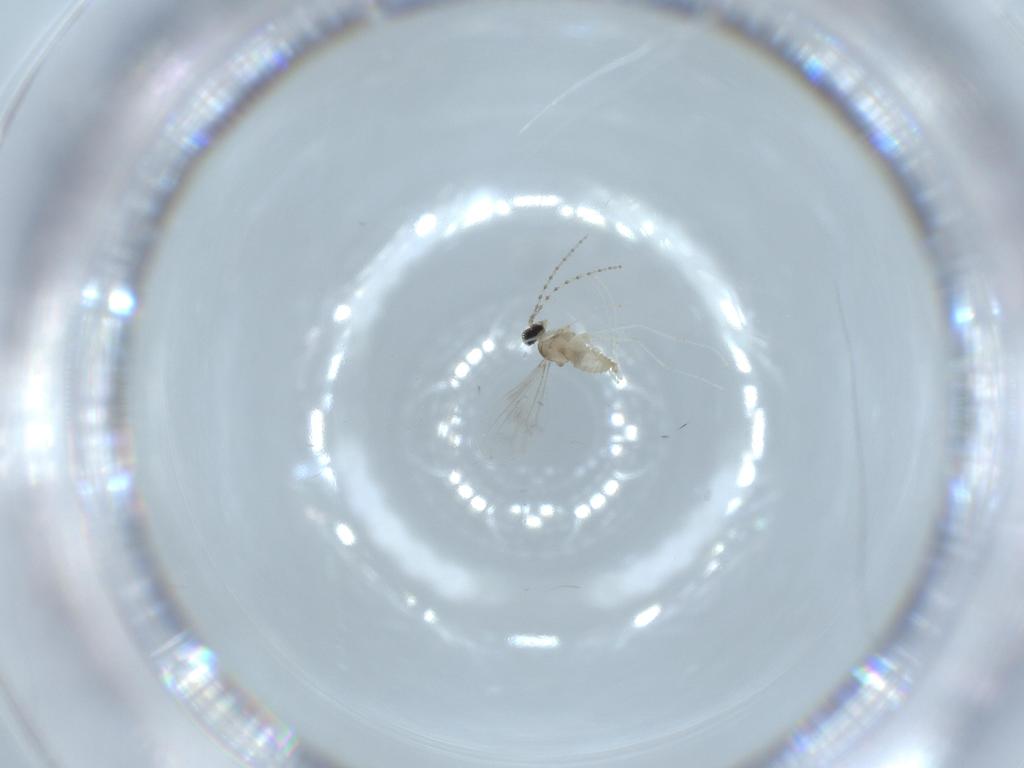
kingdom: Animalia
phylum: Arthropoda
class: Insecta
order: Diptera
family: Cecidomyiidae
